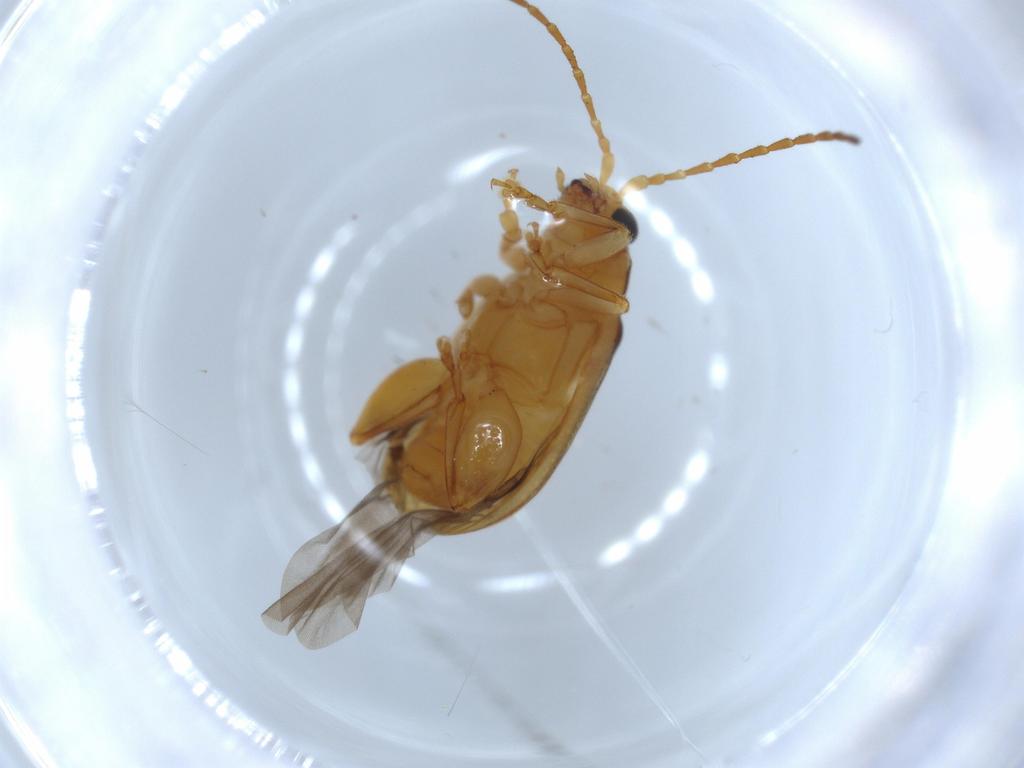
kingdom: Animalia
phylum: Arthropoda
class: Insecta
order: Coleoptera
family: Chrysomelidae
